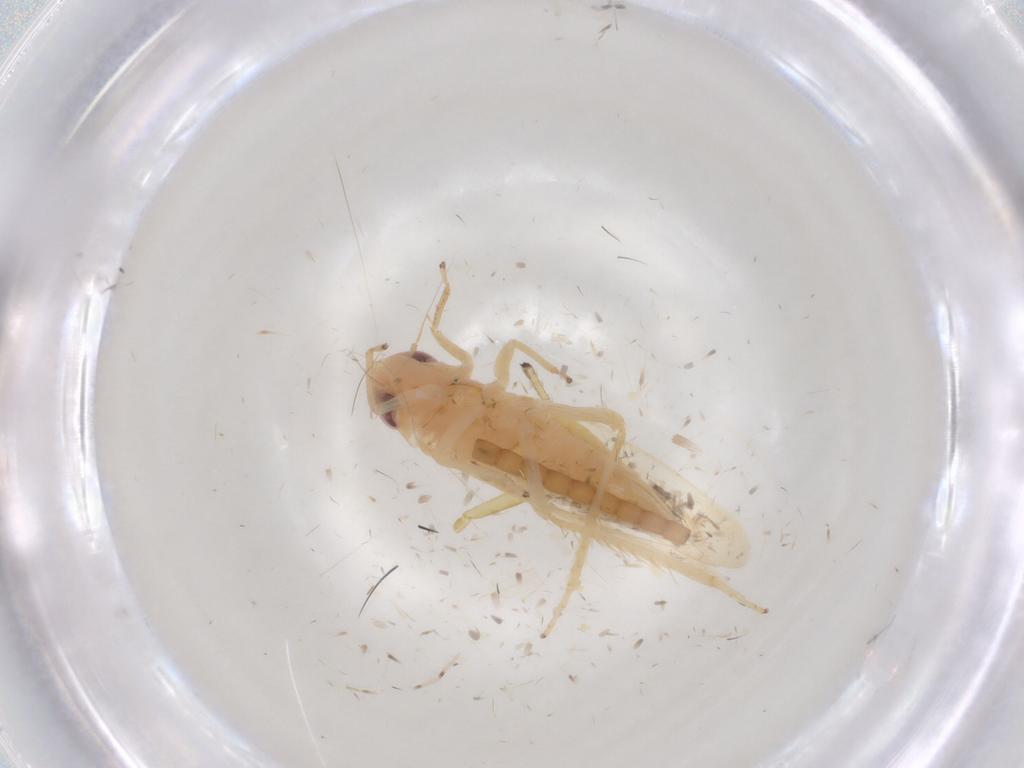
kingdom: Animalia
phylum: Arthropoda
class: Insecta
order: Hemiptera
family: Cicadellidae
